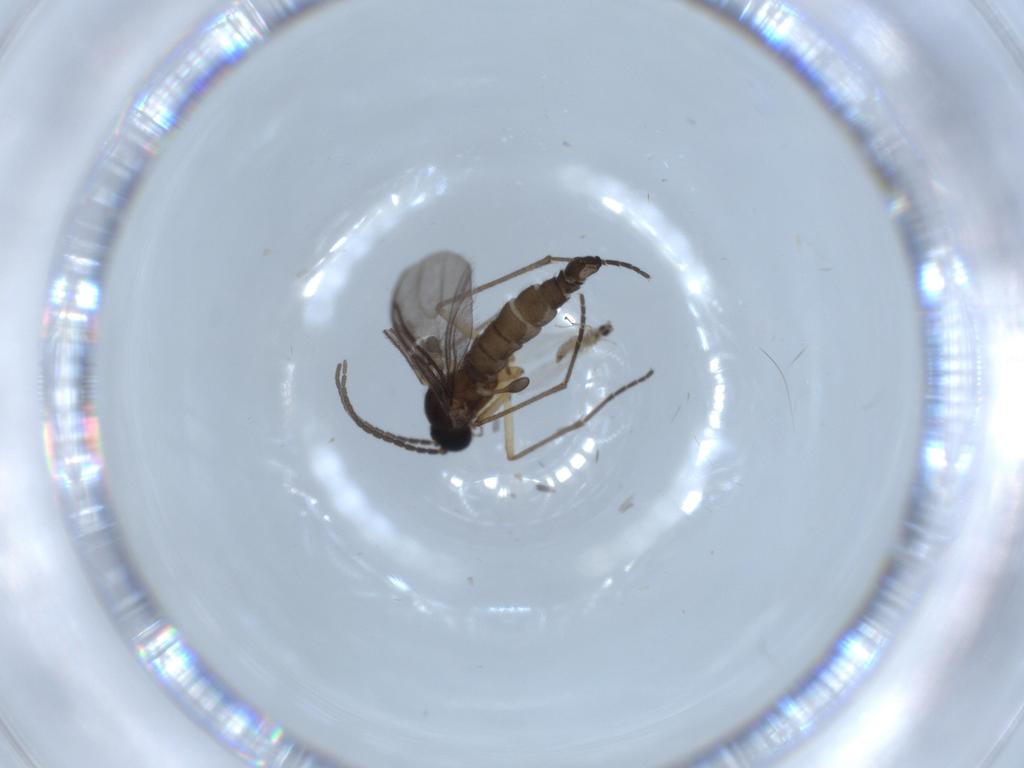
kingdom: Animalia
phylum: Arthropoda
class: Insecta
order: Diptera
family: Cecidomyiidae
